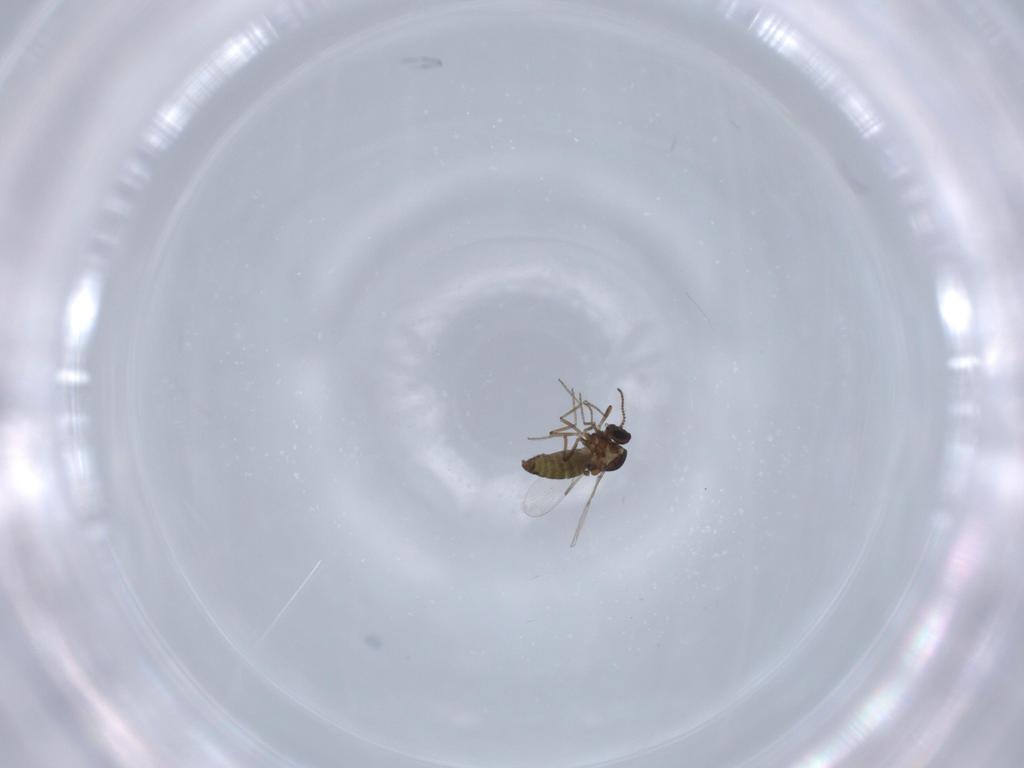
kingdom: Animalia
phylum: Arthropoda
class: Insecta
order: Diptera
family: Ceratopogonidae
